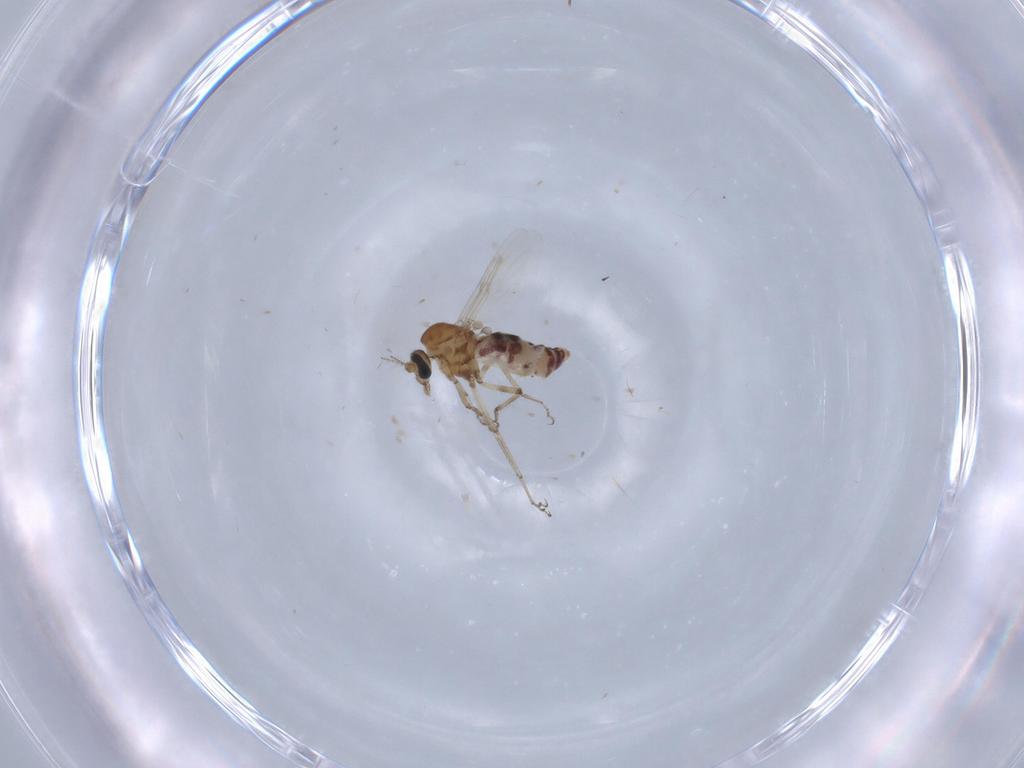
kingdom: Animalia
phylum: Arthropoda
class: Insecta
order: Diptera
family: Ceratopogonidae
